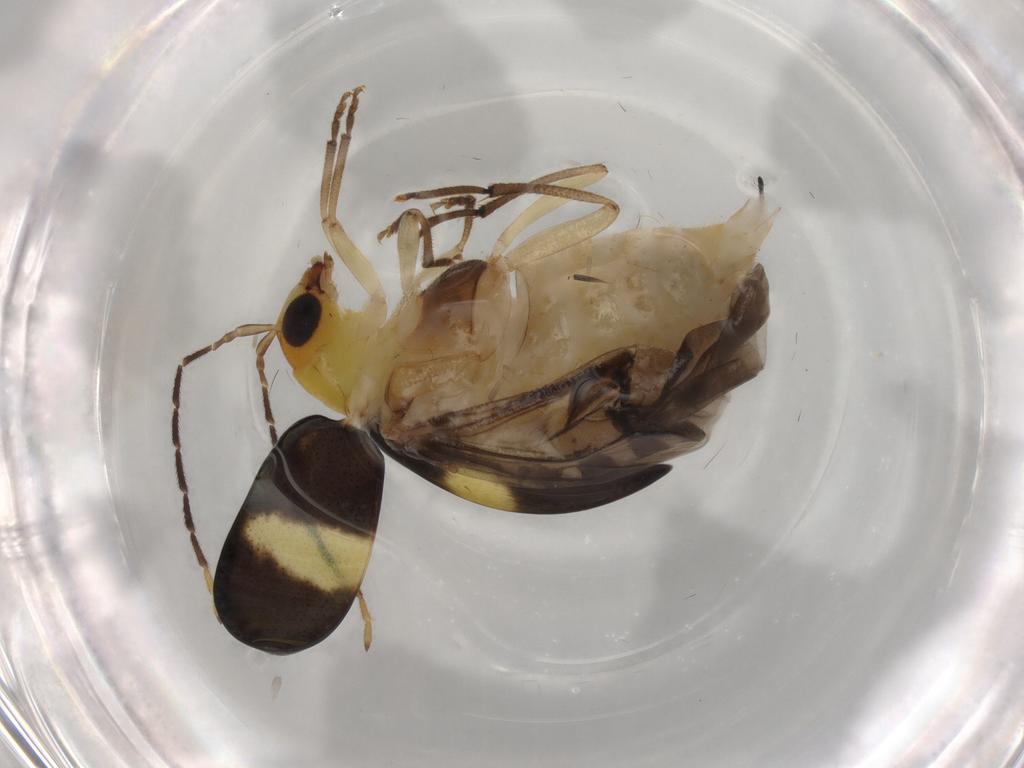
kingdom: Animalia
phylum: Arthropoda
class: Insecta
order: Coleoptera
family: Chrysomelidae
